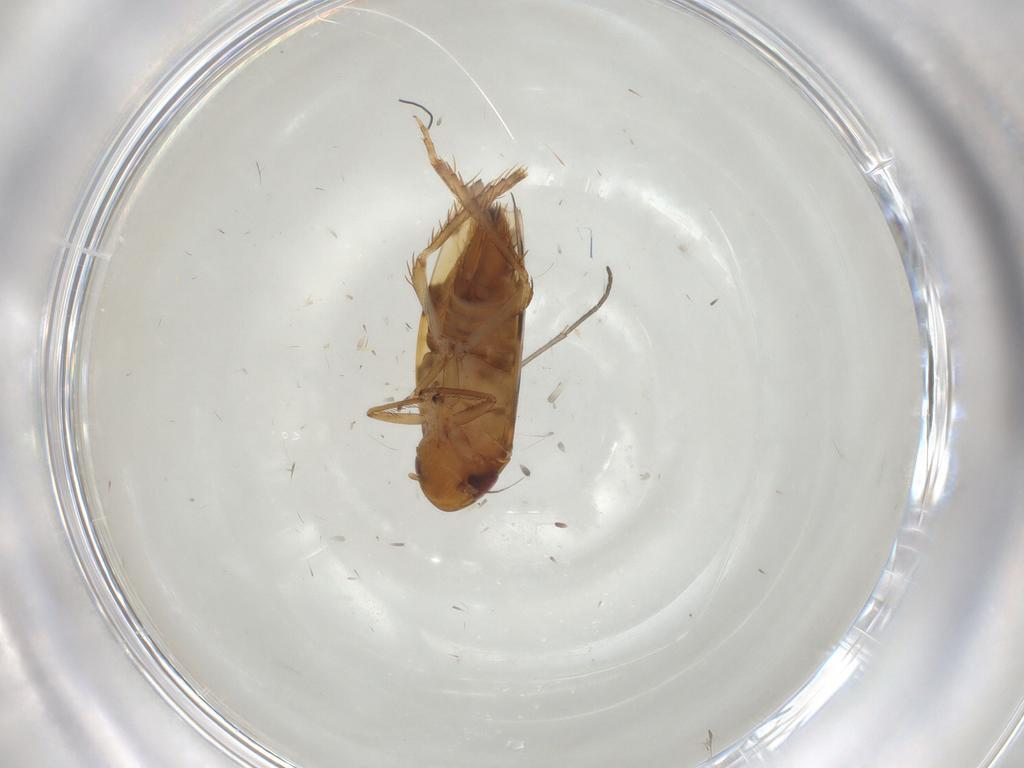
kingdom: Animalia
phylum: Arthropoda
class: Insecta
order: Hemiptera
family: Cicadellidae
